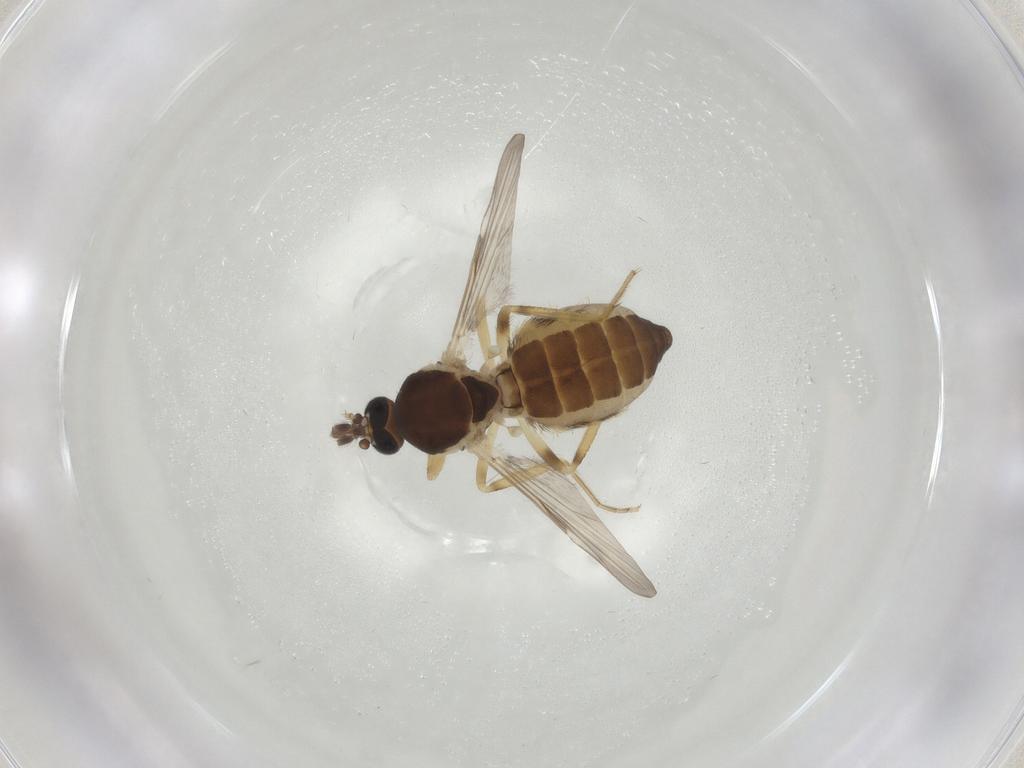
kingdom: Animalia
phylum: Arthropoda
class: Insecta
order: Diptera
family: Ceratopogonidae
